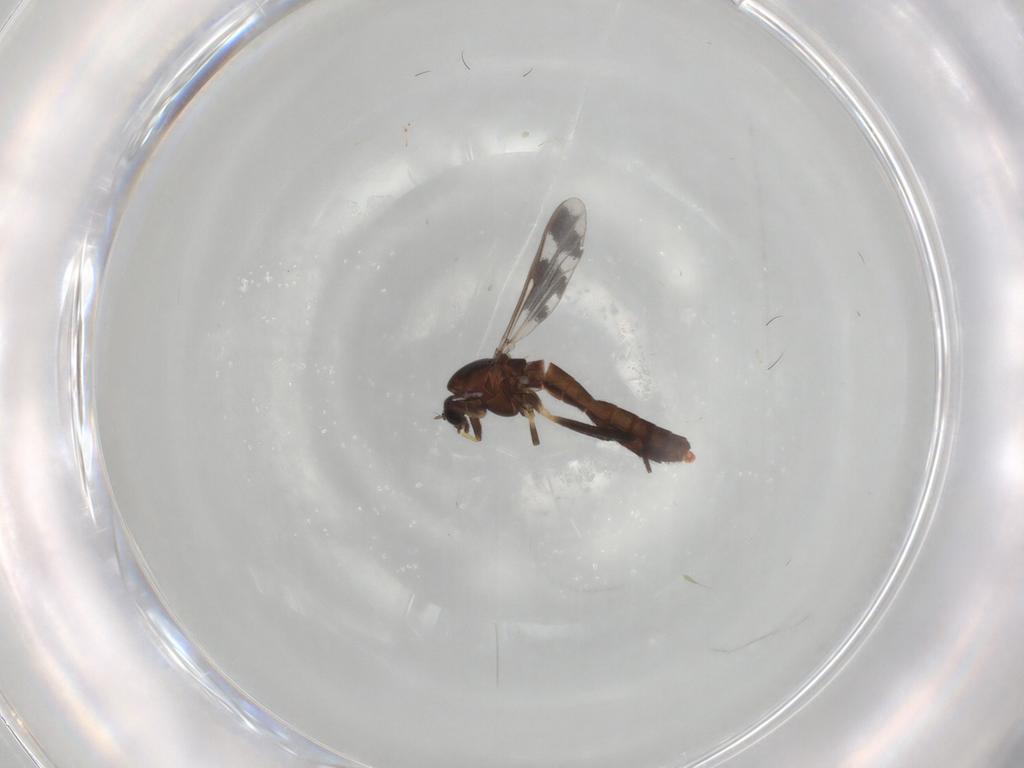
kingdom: Animalia
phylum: Arthropoda
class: Insecta
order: Diptera
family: Chironomidae
